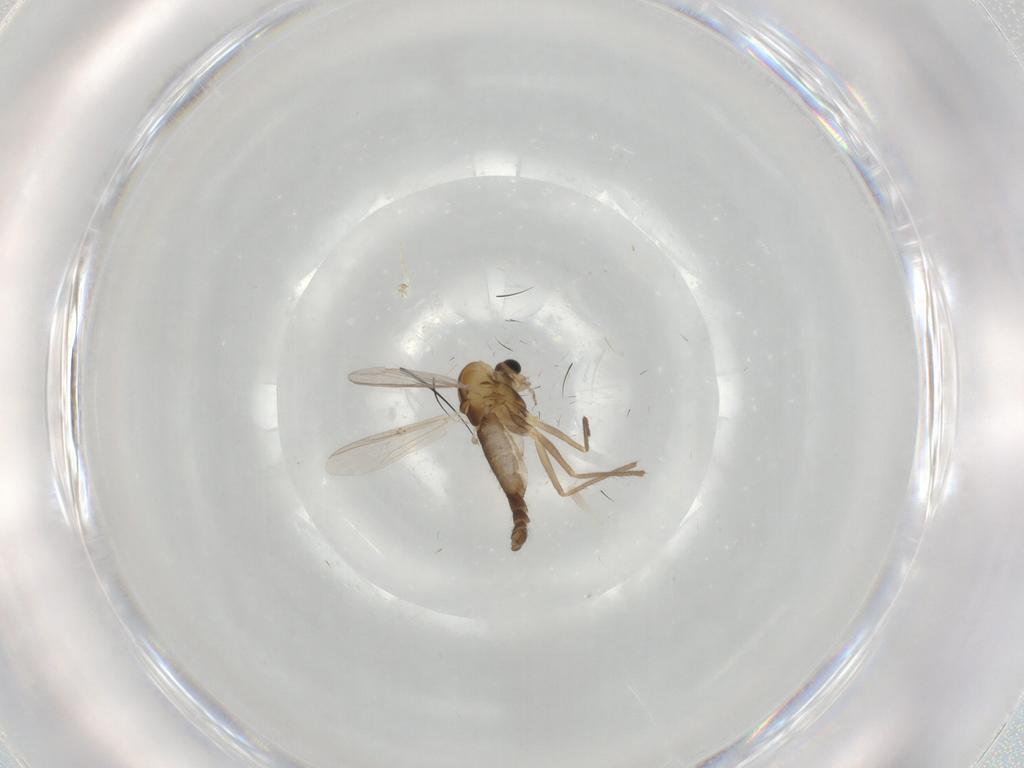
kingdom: Animalia
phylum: Arthropoda
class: Insecta
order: Diptera
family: Chironomidae
